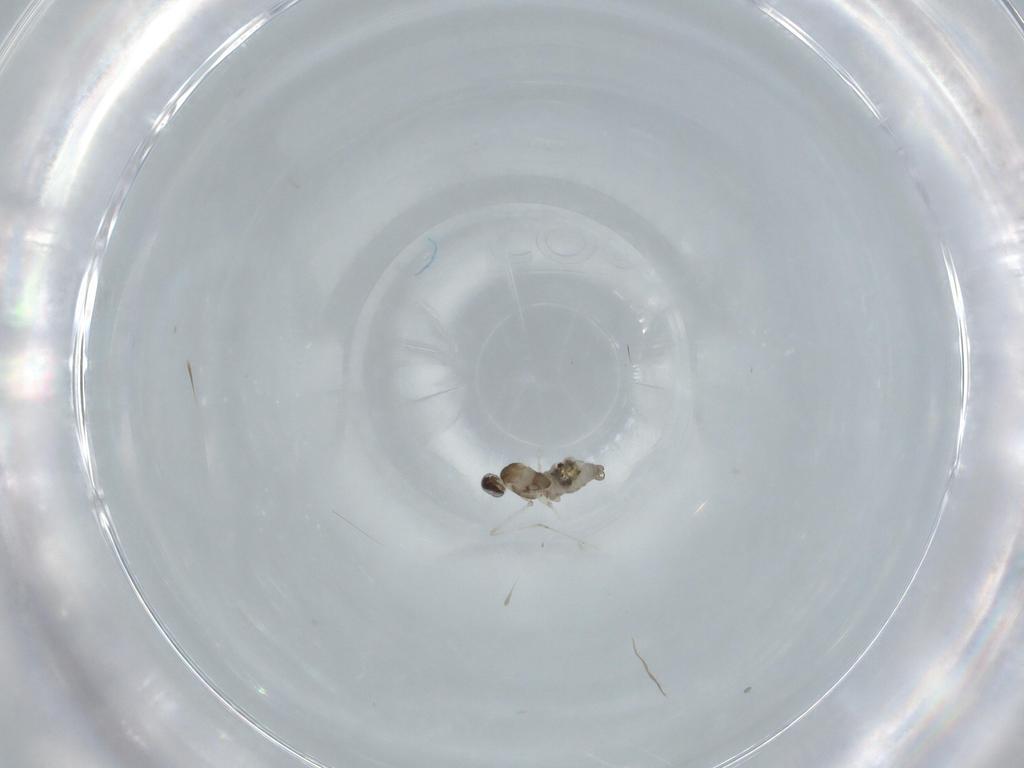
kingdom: Animalia
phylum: Arthropoda
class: Insecta
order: Diptera
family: Cecidomyiidae
